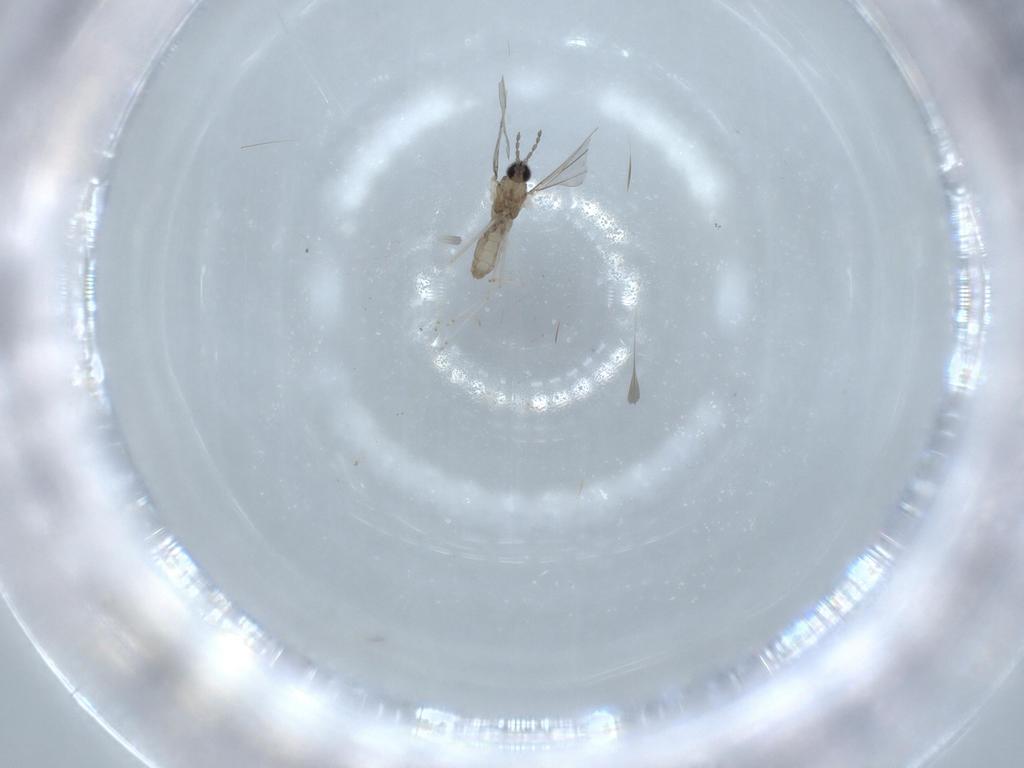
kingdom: Animalia
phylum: Arthropoda
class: Insecta
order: Diptera
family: Cecidomyiidae
